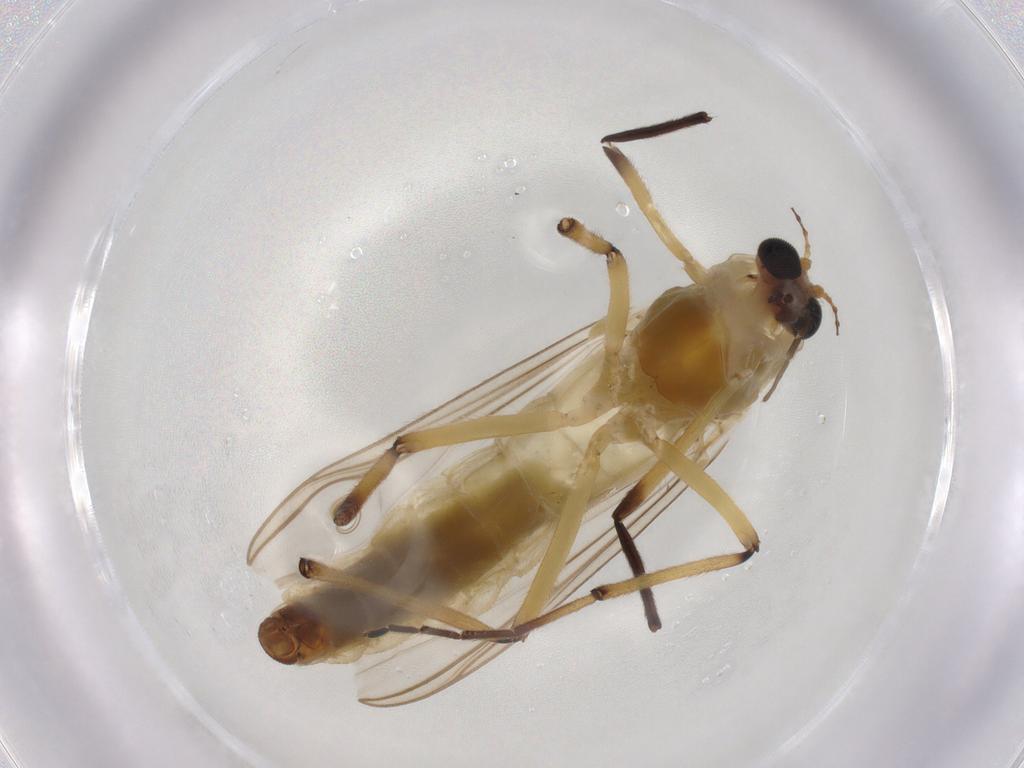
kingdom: Animalia
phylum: Arthropoda
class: Insecta
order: Diptera
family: Chironomidae
